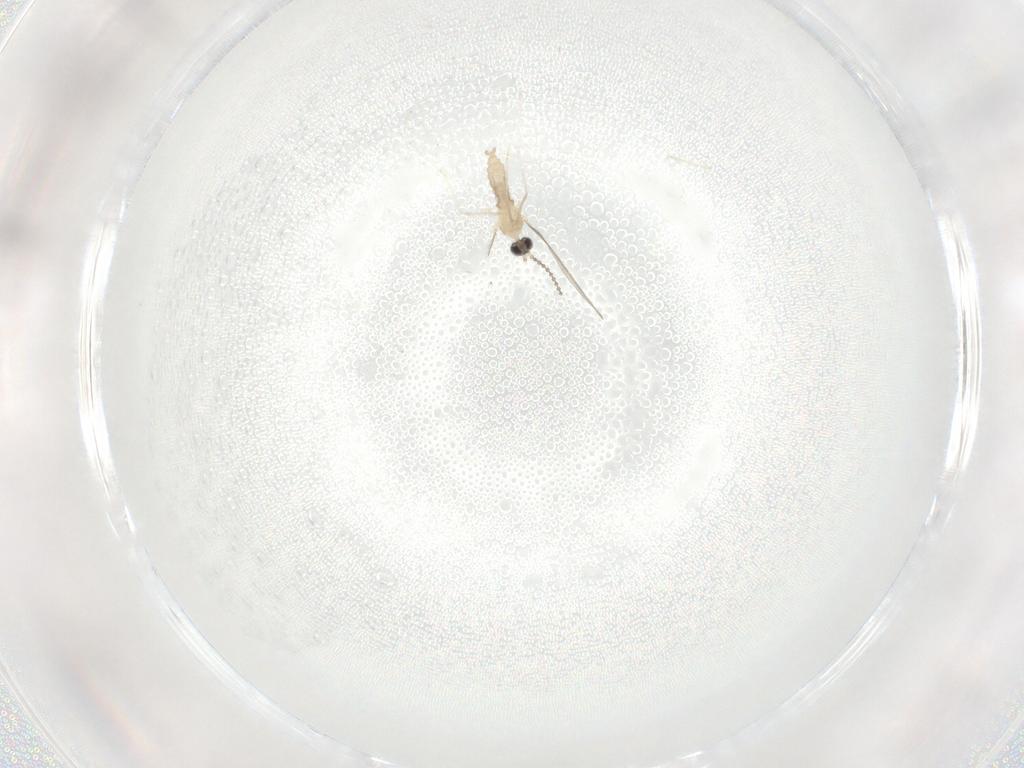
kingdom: Animalia
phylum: Arthropoda
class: Insecta
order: Diptera
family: Cecidomyiidae
